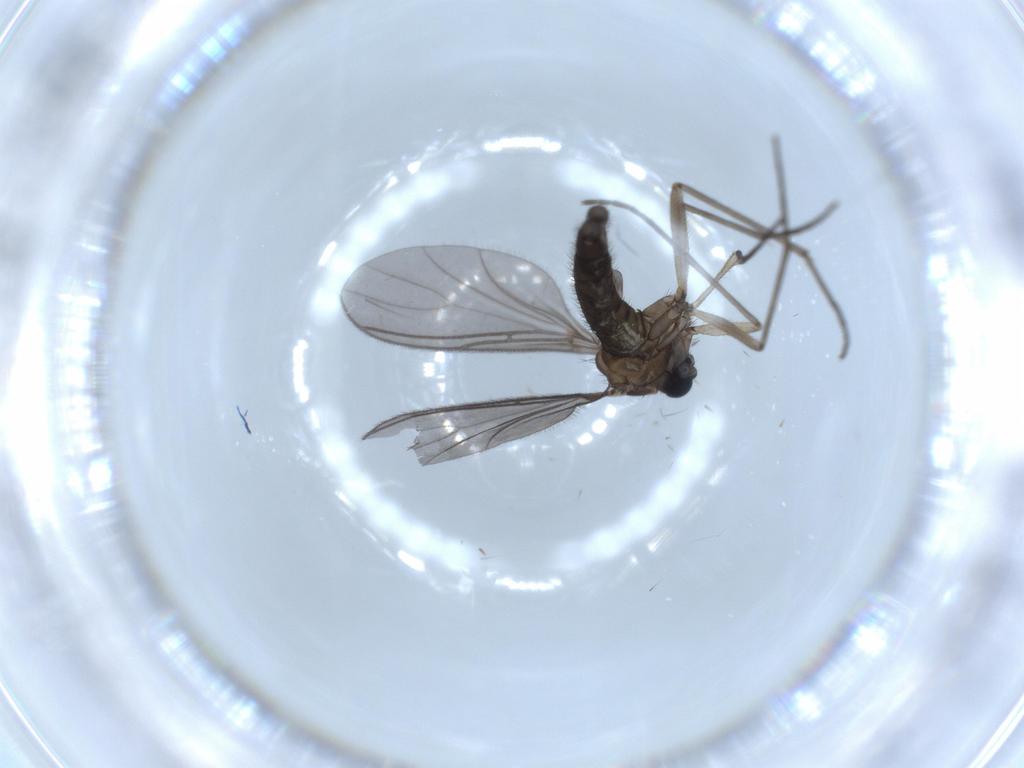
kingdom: Animalia
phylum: Arthropoda
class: Insecta
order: Diptera
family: Sciaridae
